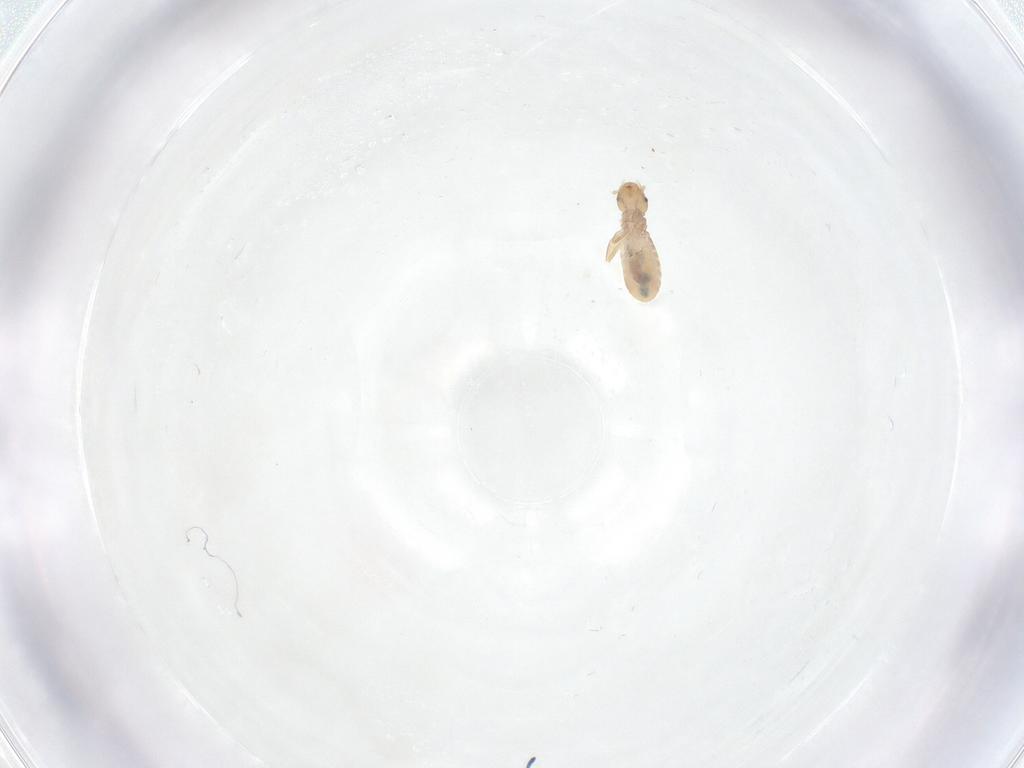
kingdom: Animalia
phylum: Arthropoda
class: Insecta
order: Psocodea
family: Liposcelididae
